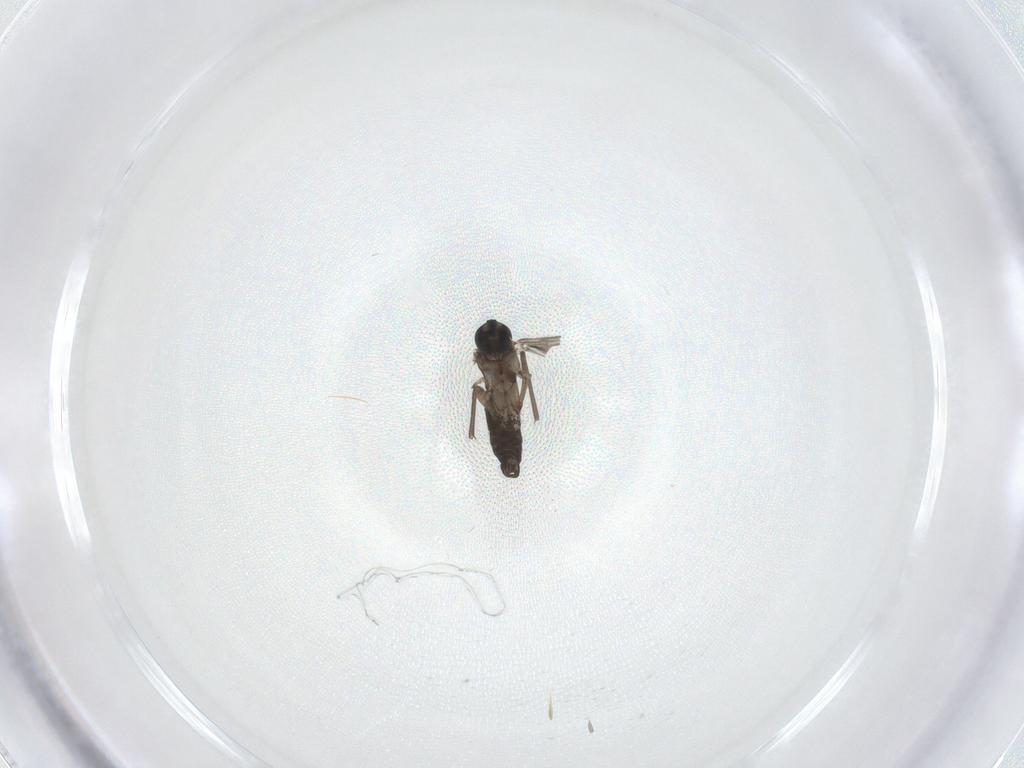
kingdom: Animalia
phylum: Arthropoda
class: Insecta
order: Diptera
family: Sciaridae
